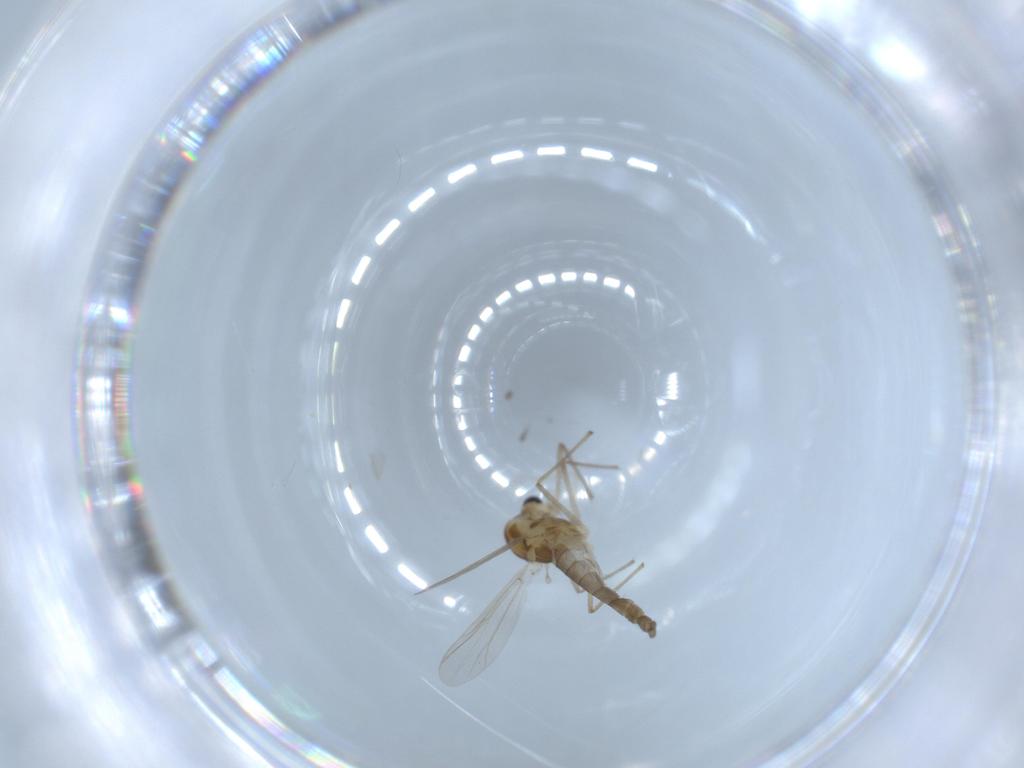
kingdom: Animalia
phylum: Arthropoda
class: Insecta
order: Diptera
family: Chironomidae
